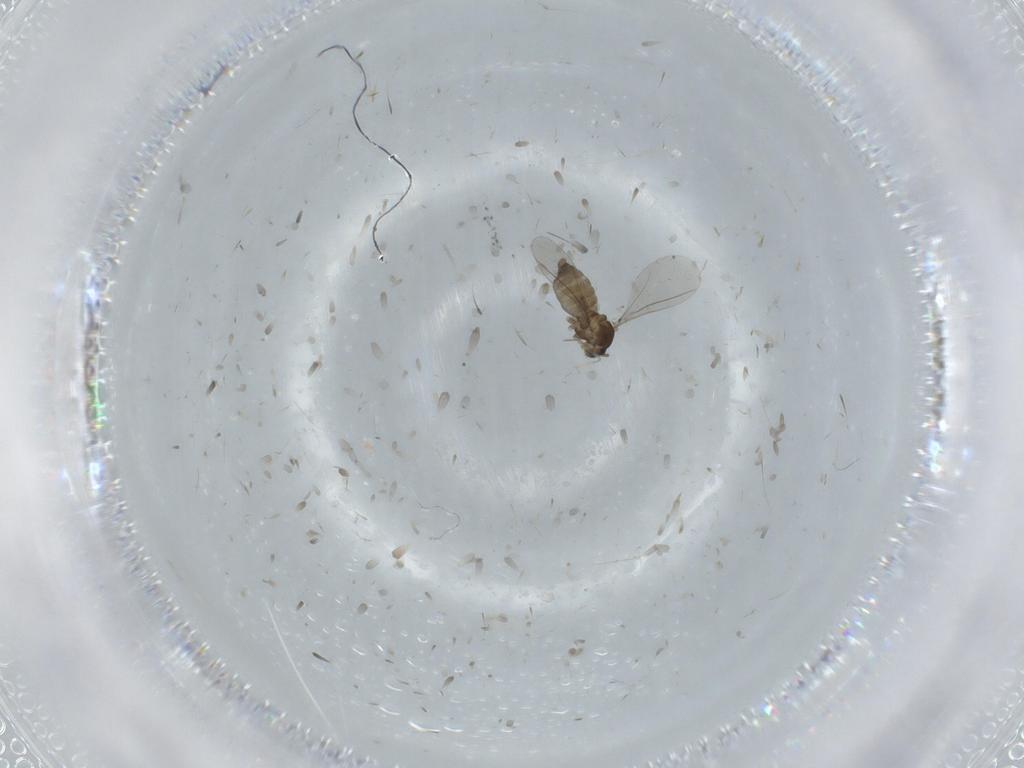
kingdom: Animalia
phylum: Arthropoda
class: Insecta
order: Diptera
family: Cecidomyiidae
